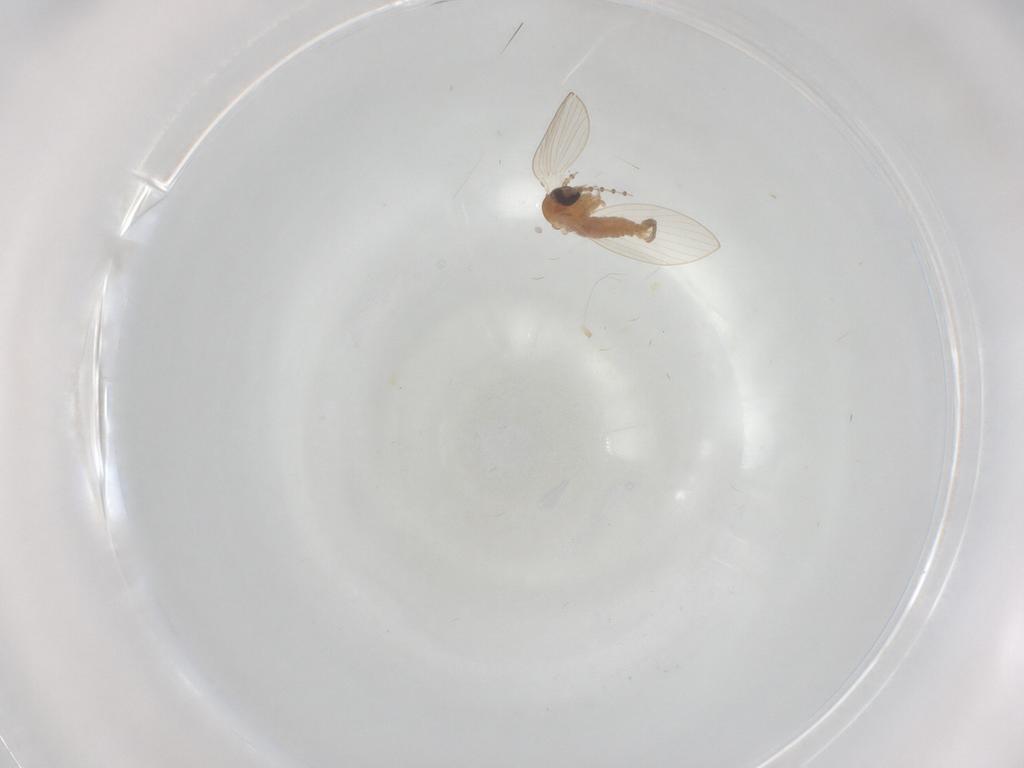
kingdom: Animalia
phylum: Arthropoda
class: Insecta
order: Diptera
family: Psychodidae
